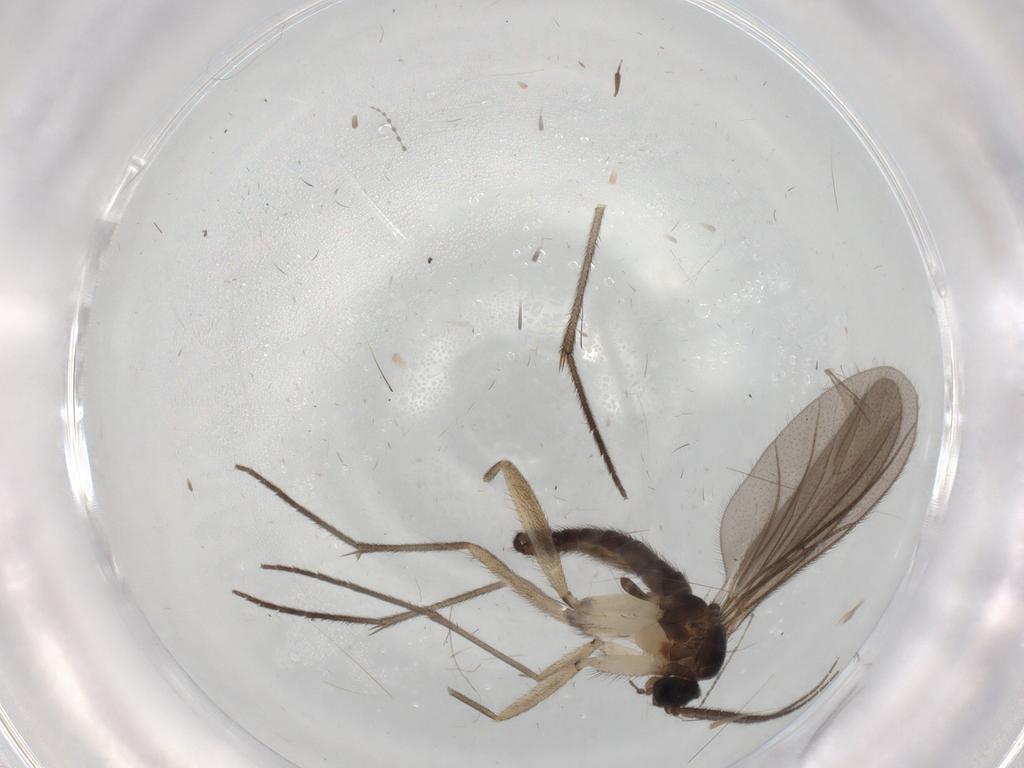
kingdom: Animalia
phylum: Arthropoda
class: Insecta
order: Diptera
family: Sciaridae
